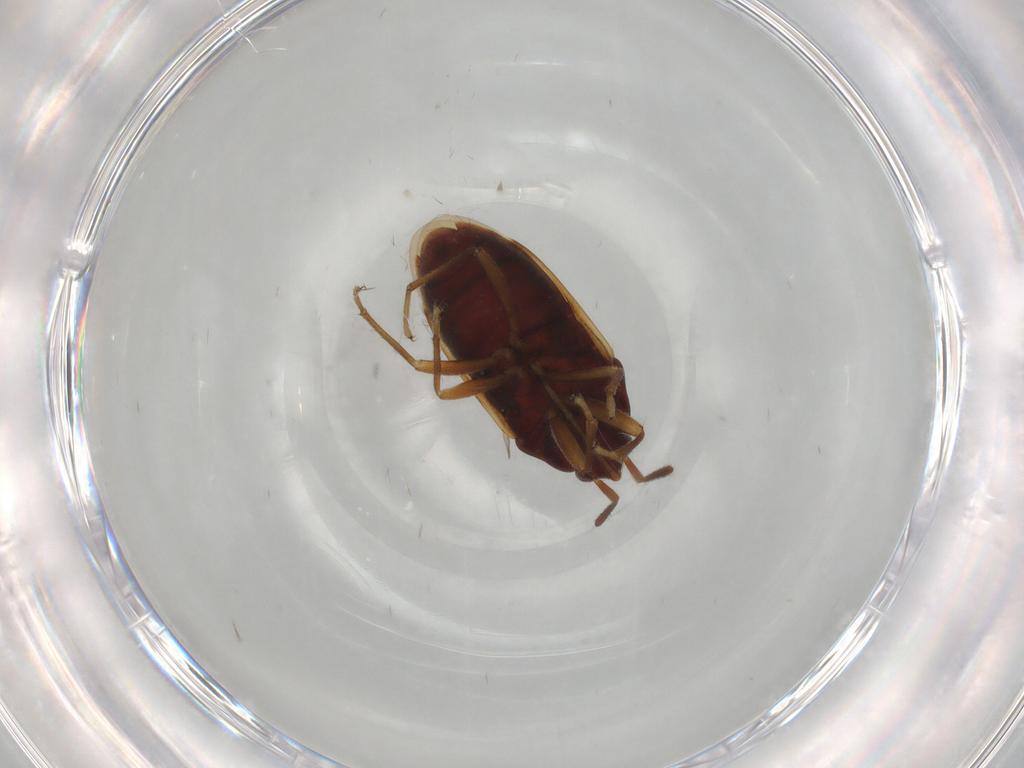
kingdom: Animalia
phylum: Arthropoda
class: Insecta
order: Hemiptera
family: Rhyparochromidae
